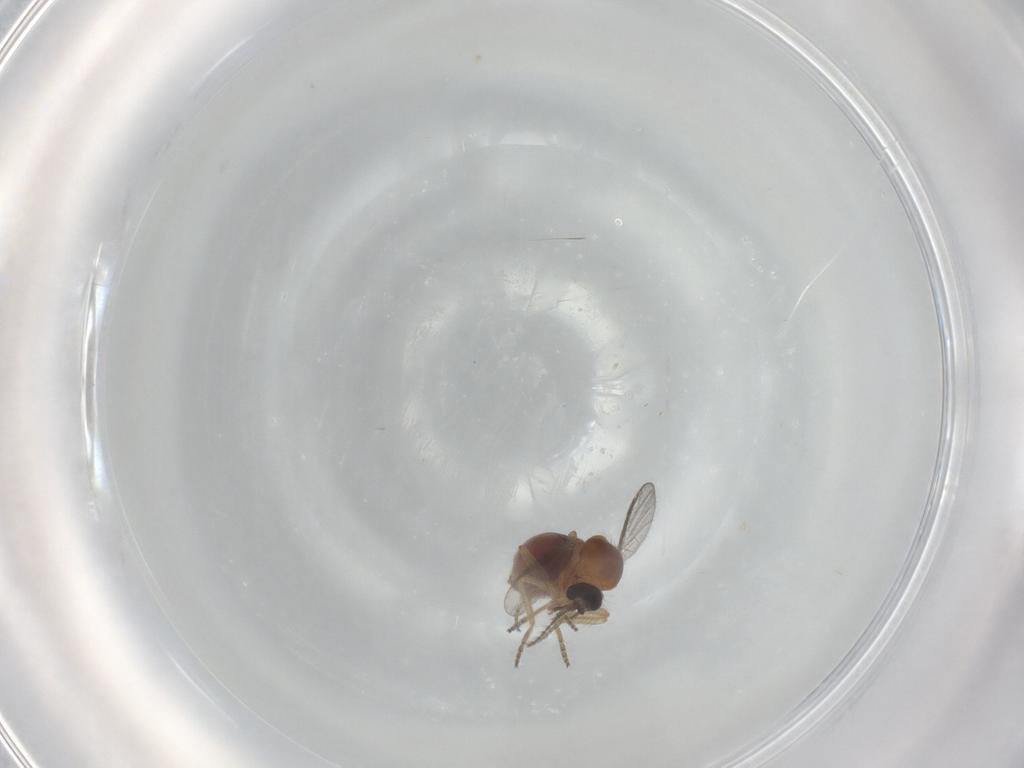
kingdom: Animalia
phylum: Arthropoda
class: Insecta
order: Diptera
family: Ceratopogonidae
